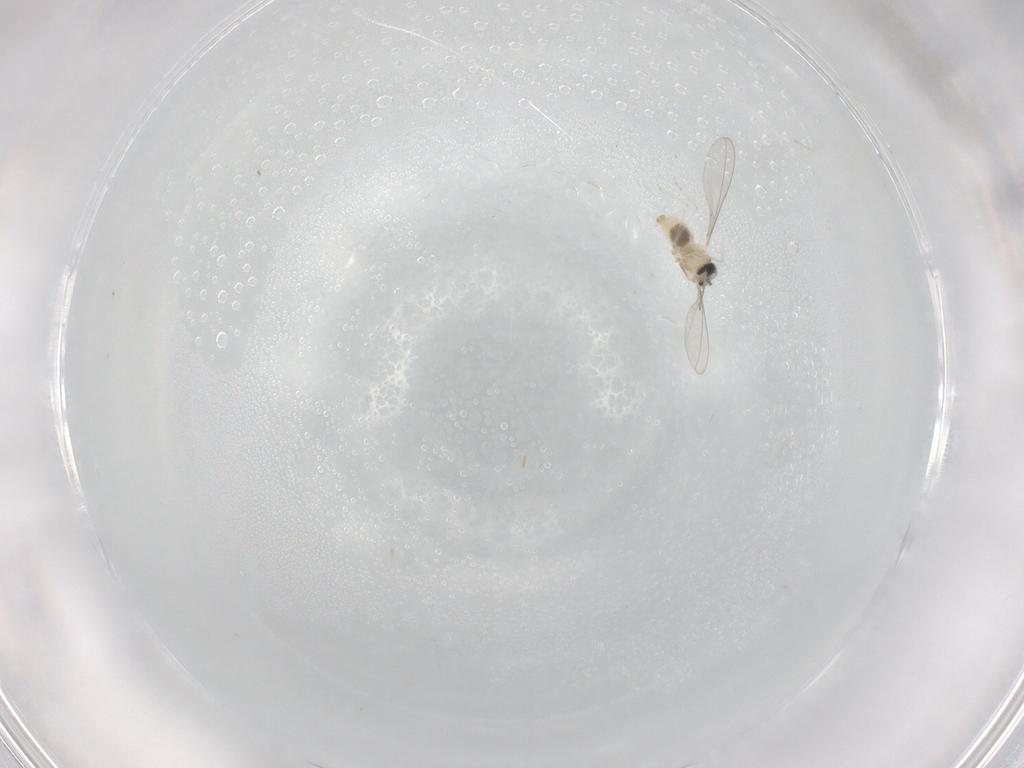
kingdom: Animalia
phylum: Arthropoda
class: Insecta
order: Diptera
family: Cecidomyiidae
